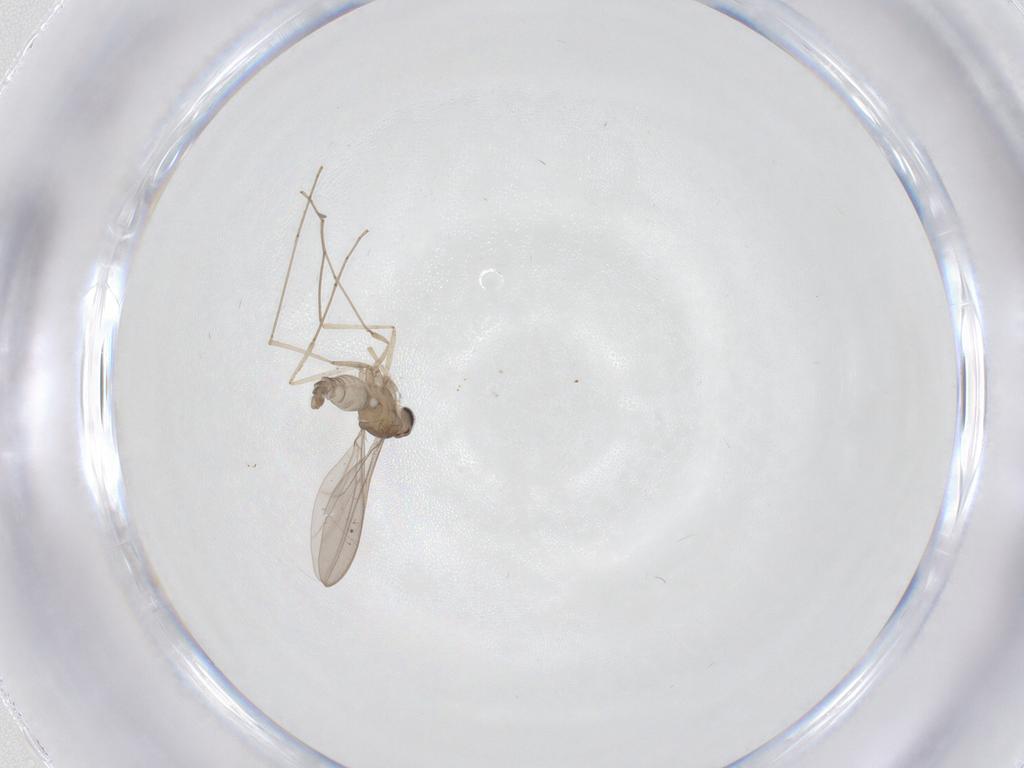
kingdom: Animalia
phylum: Arthropoda
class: Insecta
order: Diptera
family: Cecidomyiidae
